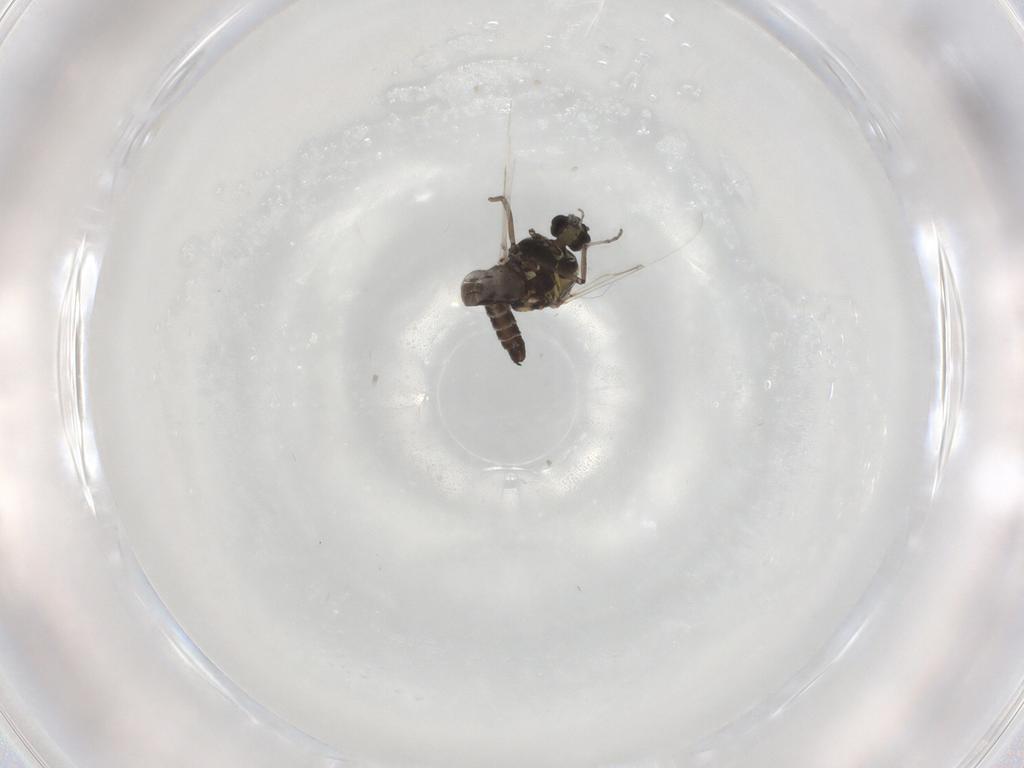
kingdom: Animalia
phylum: Arthropoda
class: Insecta
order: Diptera
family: Ceratopogonidae
